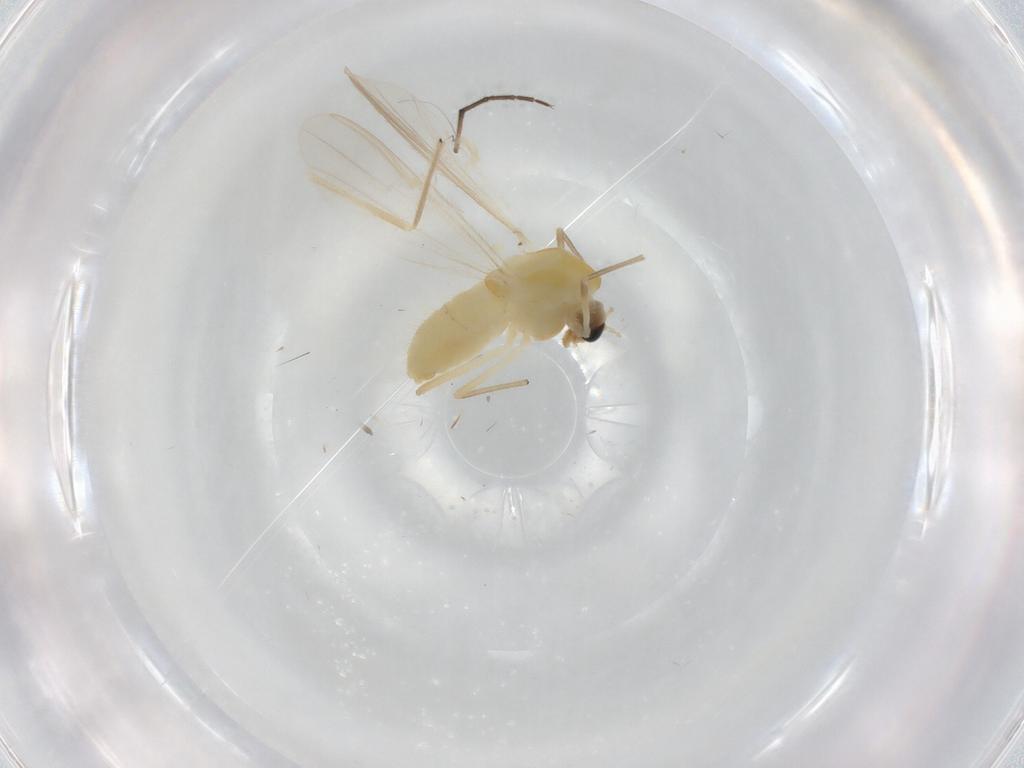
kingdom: Animalia
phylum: Arthropoda
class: Insecta
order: Diptera
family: Chironomidae
